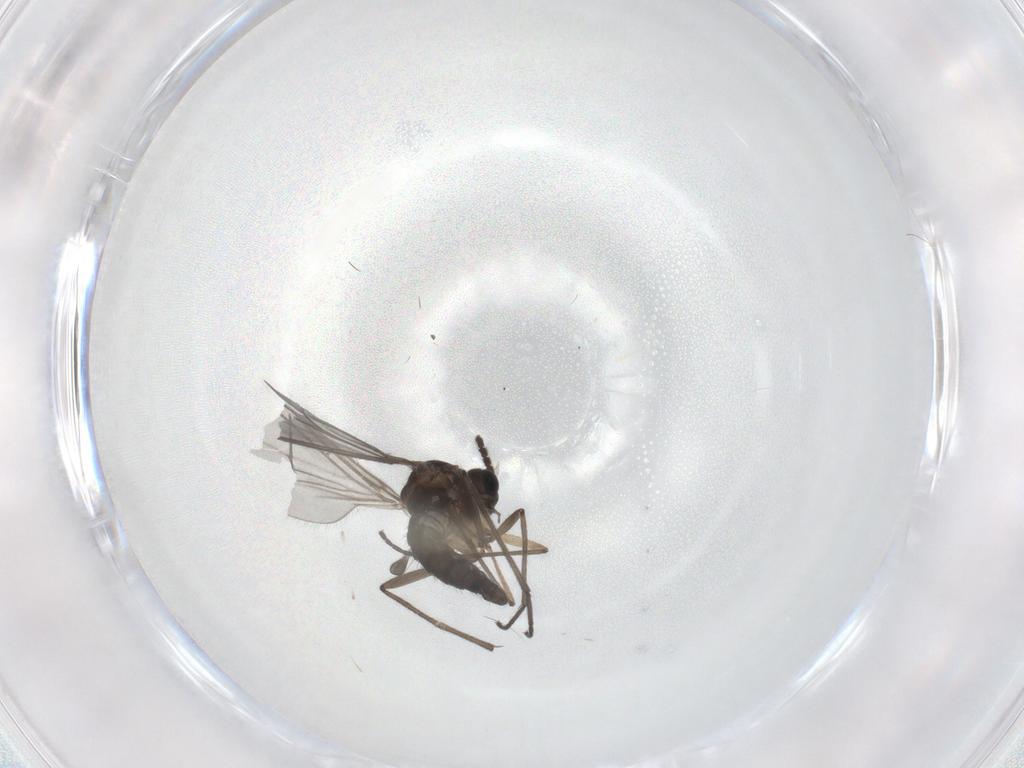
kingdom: Animalia
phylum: Arthropoda
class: Insecta
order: Diptera
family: Sciaridae
